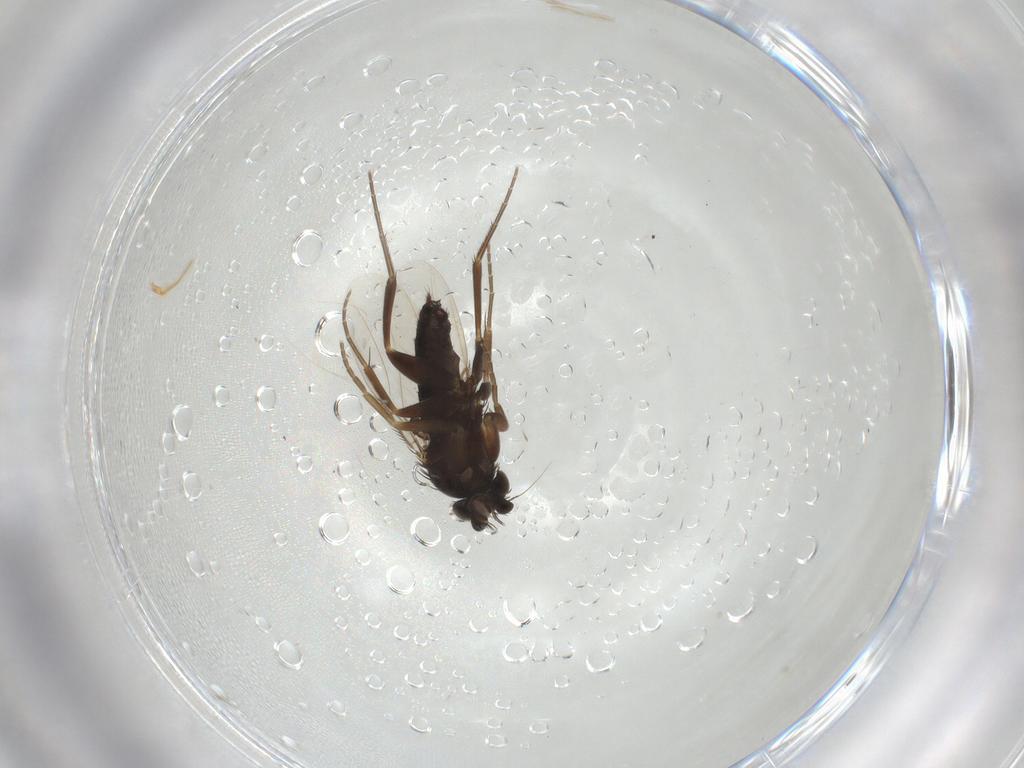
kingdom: Animalia
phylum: Arthropoda
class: Insecta
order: Diptera
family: Phoridae
